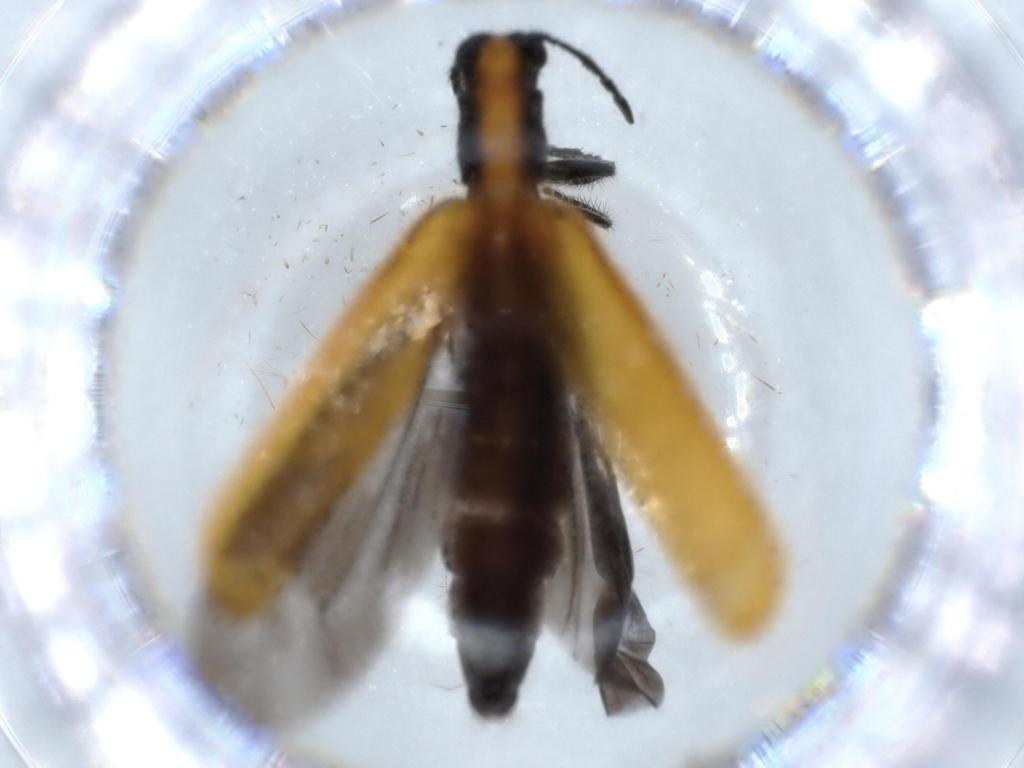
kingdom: Animalia
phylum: Arthropoda
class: Insecta
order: Coleoptera
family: Cleridae
